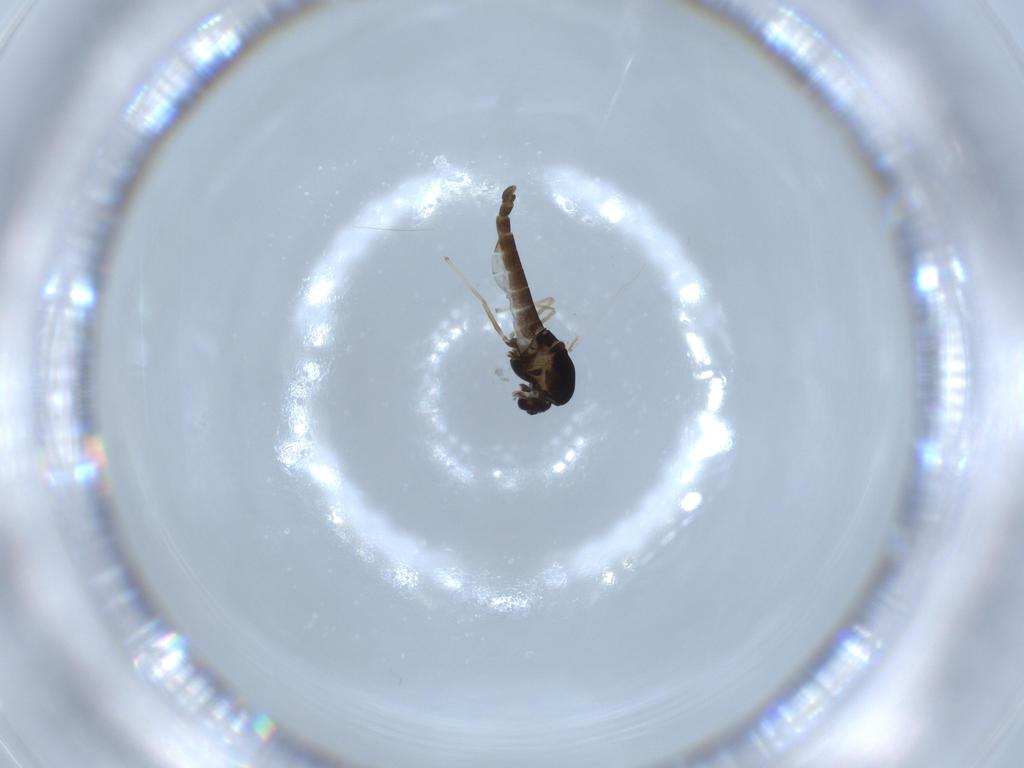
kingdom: Animalia
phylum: Arthropoda
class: Insecta
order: Diptera
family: Chironomidae
